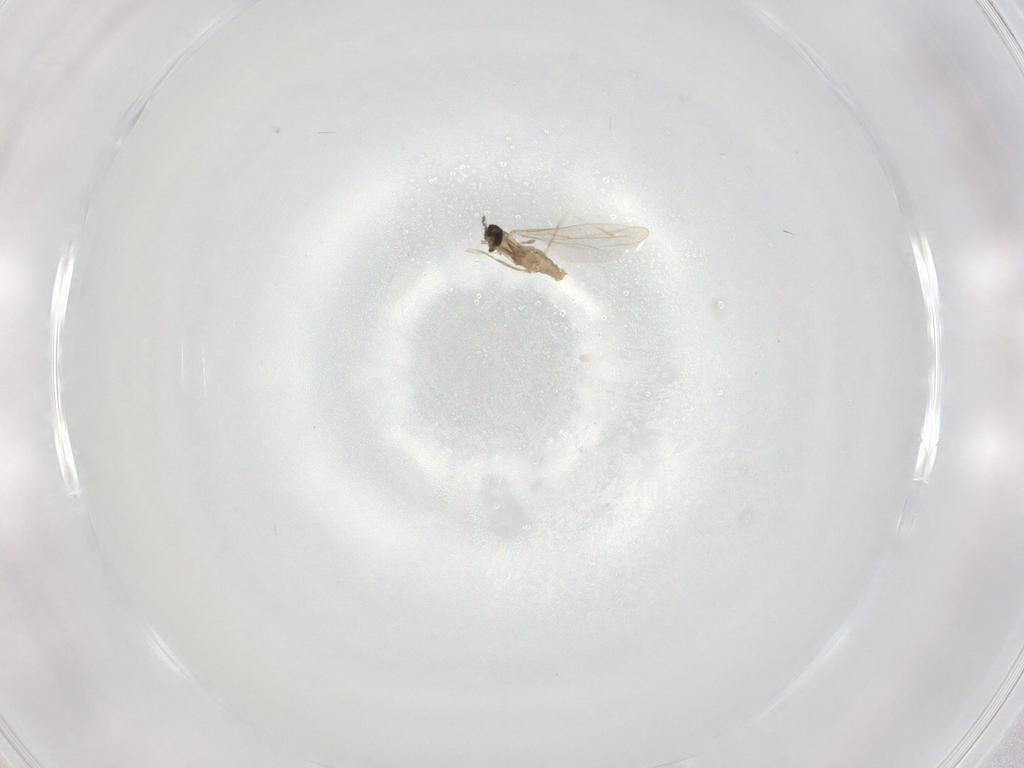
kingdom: Animalia
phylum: Arthropoda
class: Insecta
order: Diptera
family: Cecidomyiidae
